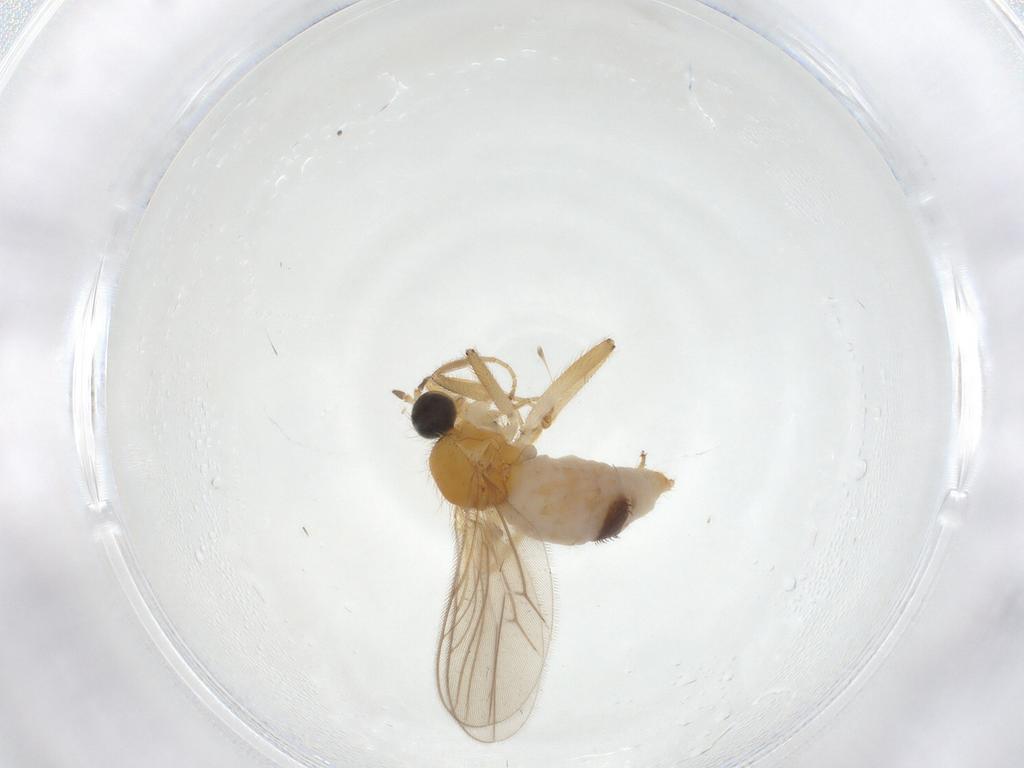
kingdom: Animalia
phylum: Arthropoda
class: Insecta
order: Diptera
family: Hybotidae
